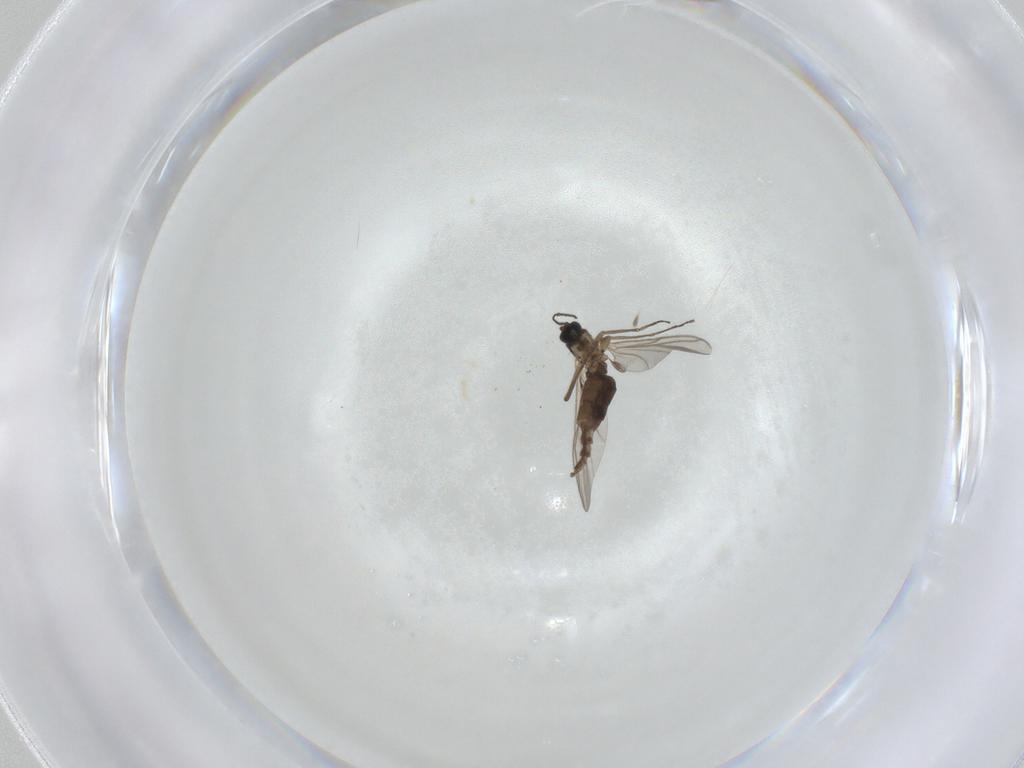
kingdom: Animalia
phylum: Arthropoda
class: Insecta
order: Diptera
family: Sciaridae
